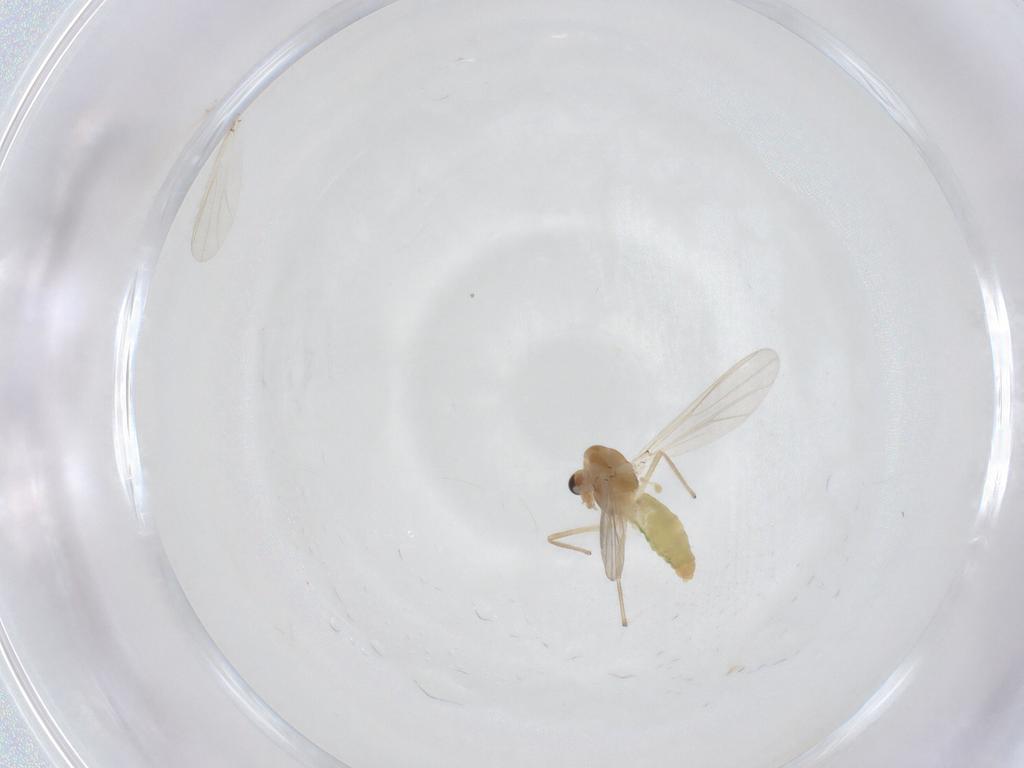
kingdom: Animalia
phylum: Arthropoda
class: Insecta
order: Diptera
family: Chironomidae
